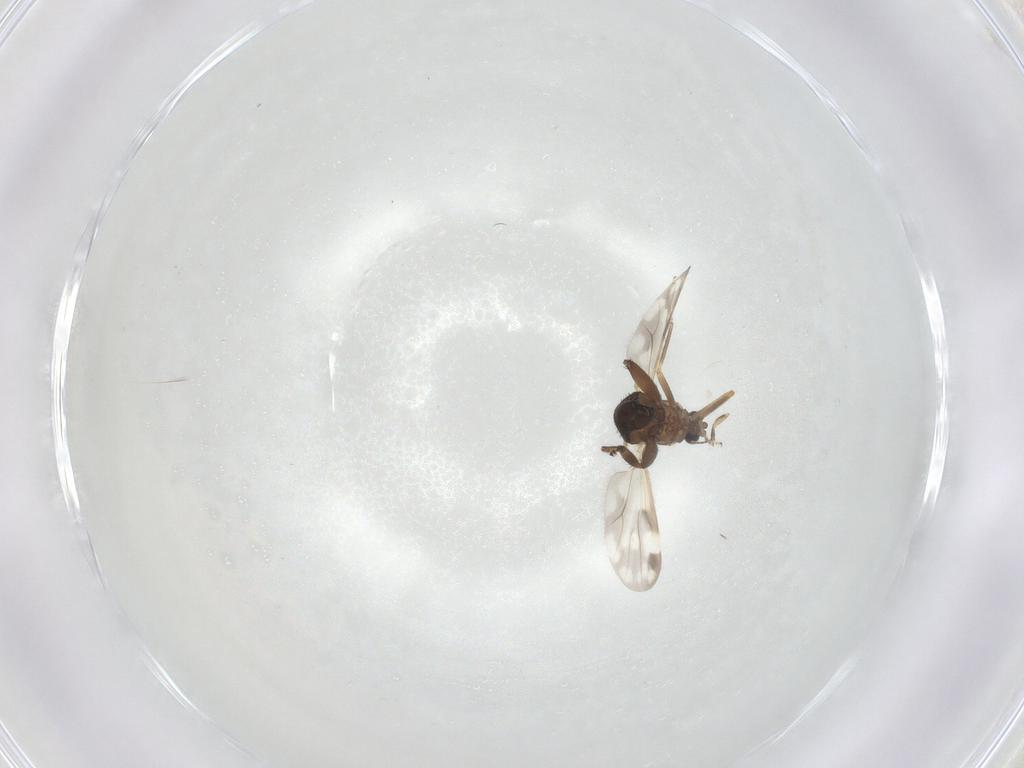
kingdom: Animalia
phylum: Arthropoda
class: Insecta
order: Diptera
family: Ceratopogonidae
